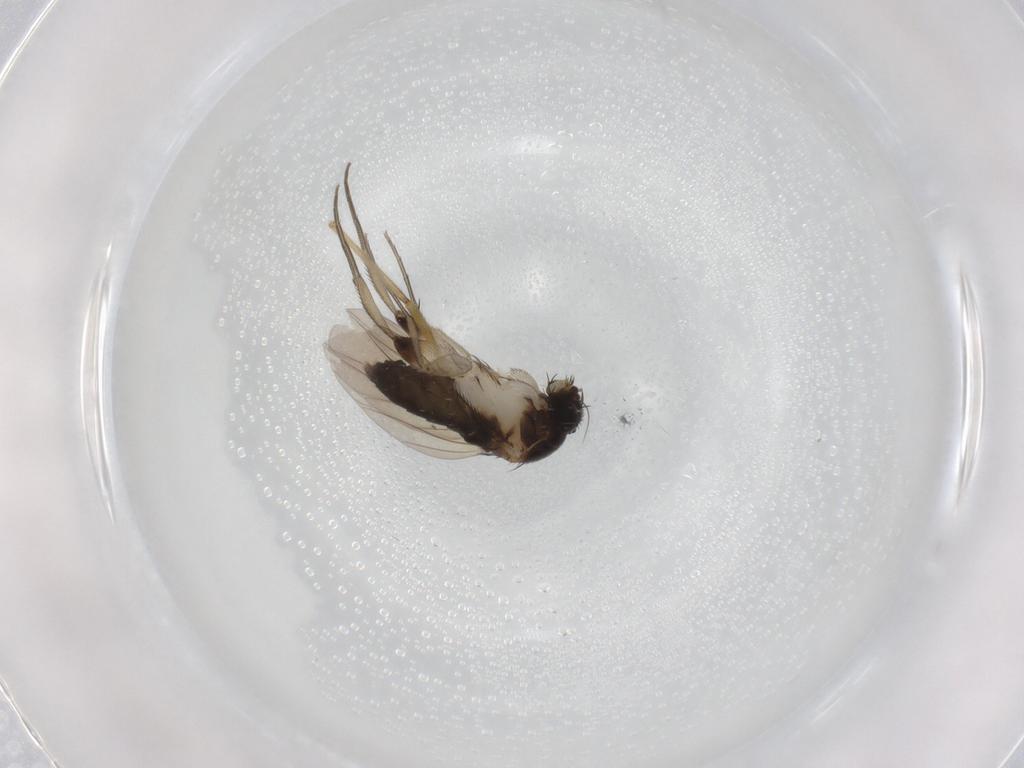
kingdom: Animalia
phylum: Arthropoda
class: Insecta
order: Diptera
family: Phoridae
